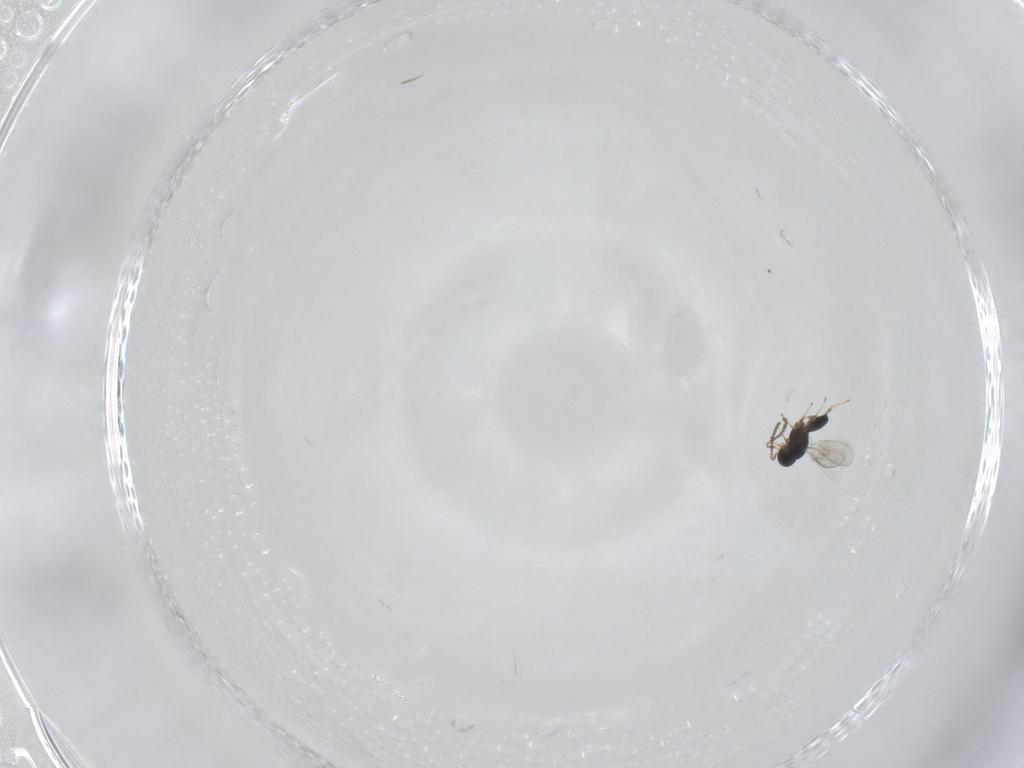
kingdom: Animalia
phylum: Arthropoda
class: Insecta
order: Hymenoptera
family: Scelionidae
